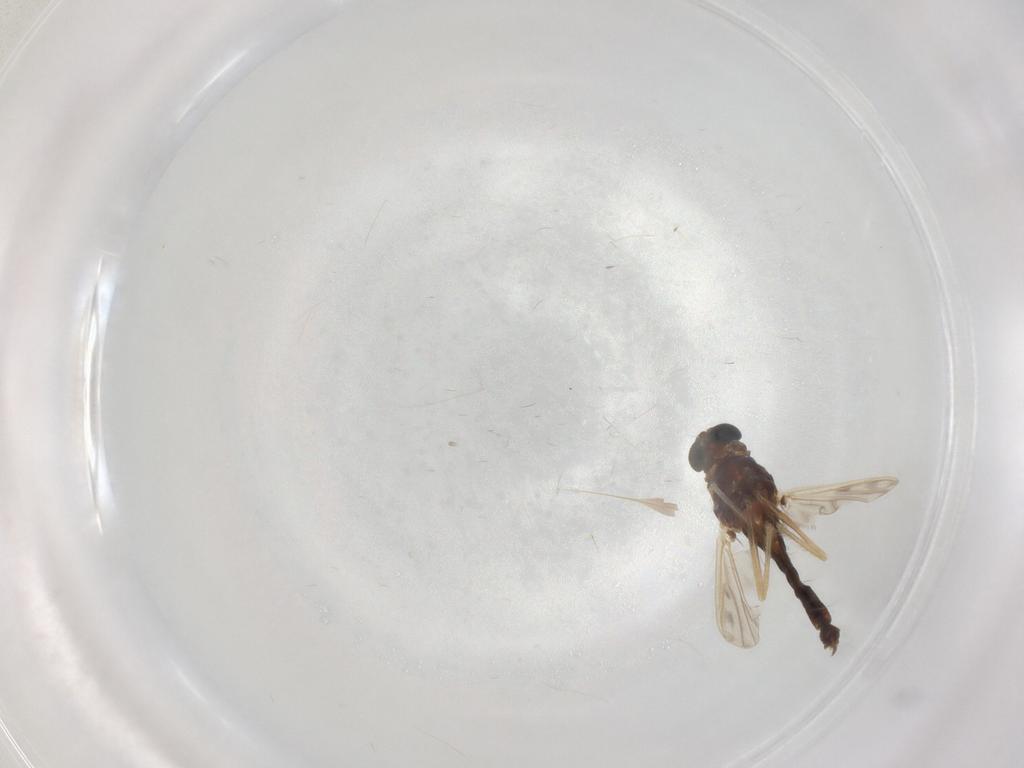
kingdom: Animalia
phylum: Arthropoda
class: Insecta
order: Diptera
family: Chironomidae
